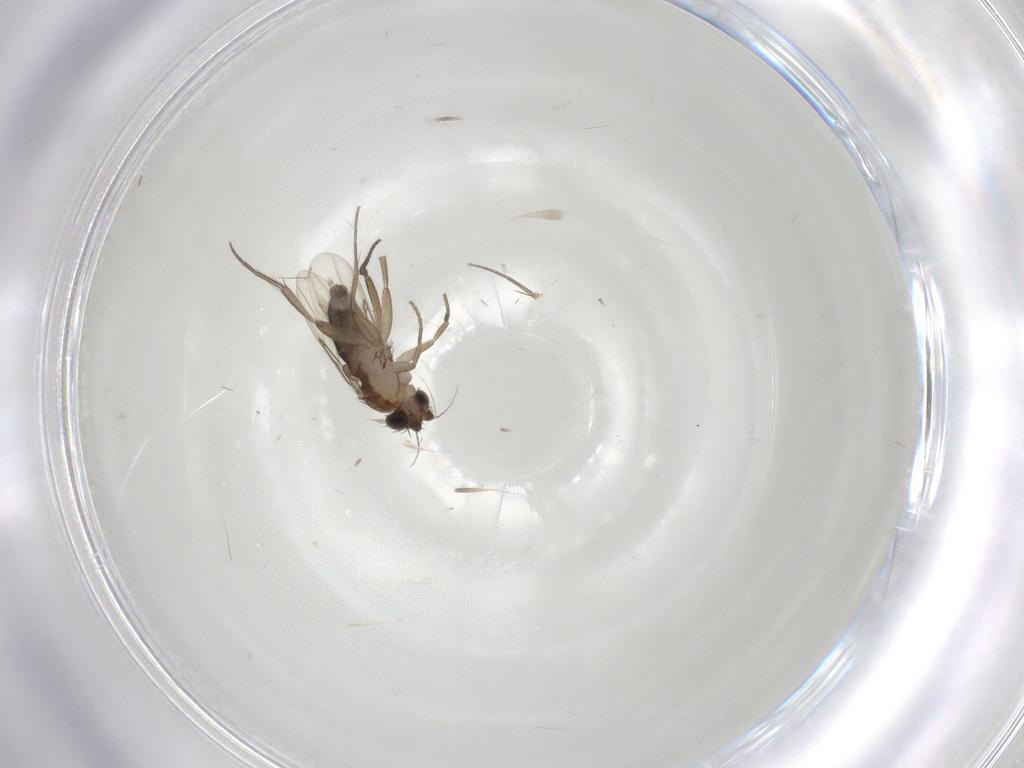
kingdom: Animalia
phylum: Arthropoda
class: Insecta
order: Diptera
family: Phoridae
